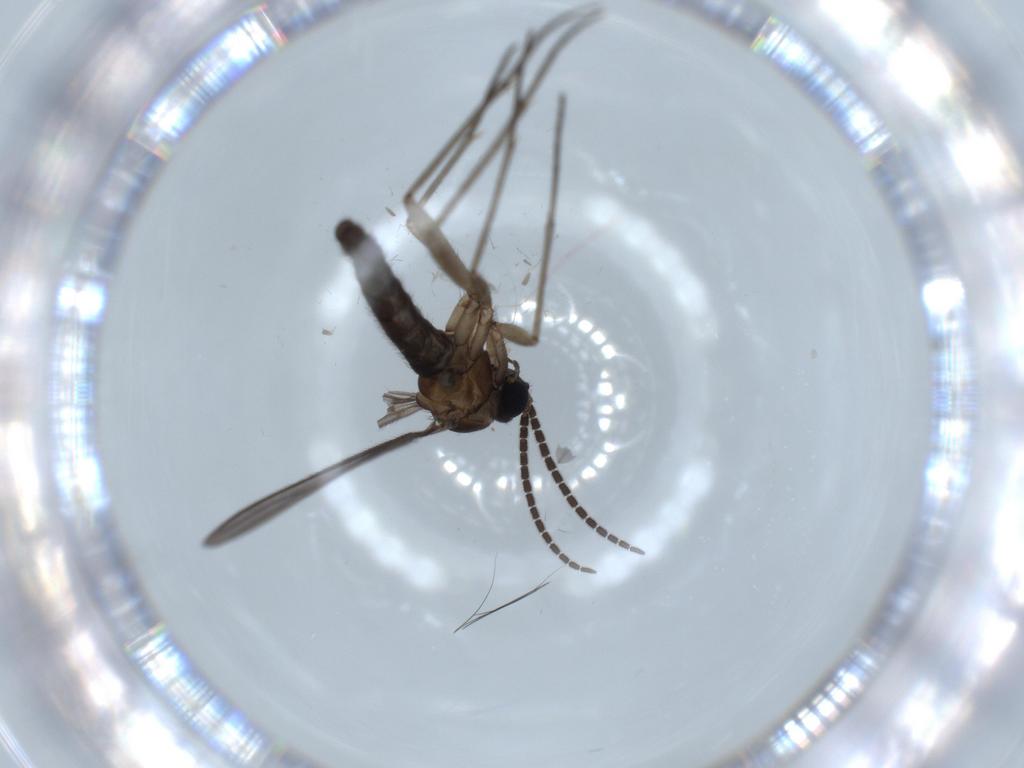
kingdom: Animalia
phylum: Arthropoda
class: Insecta
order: Diptera
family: Sciaridae
